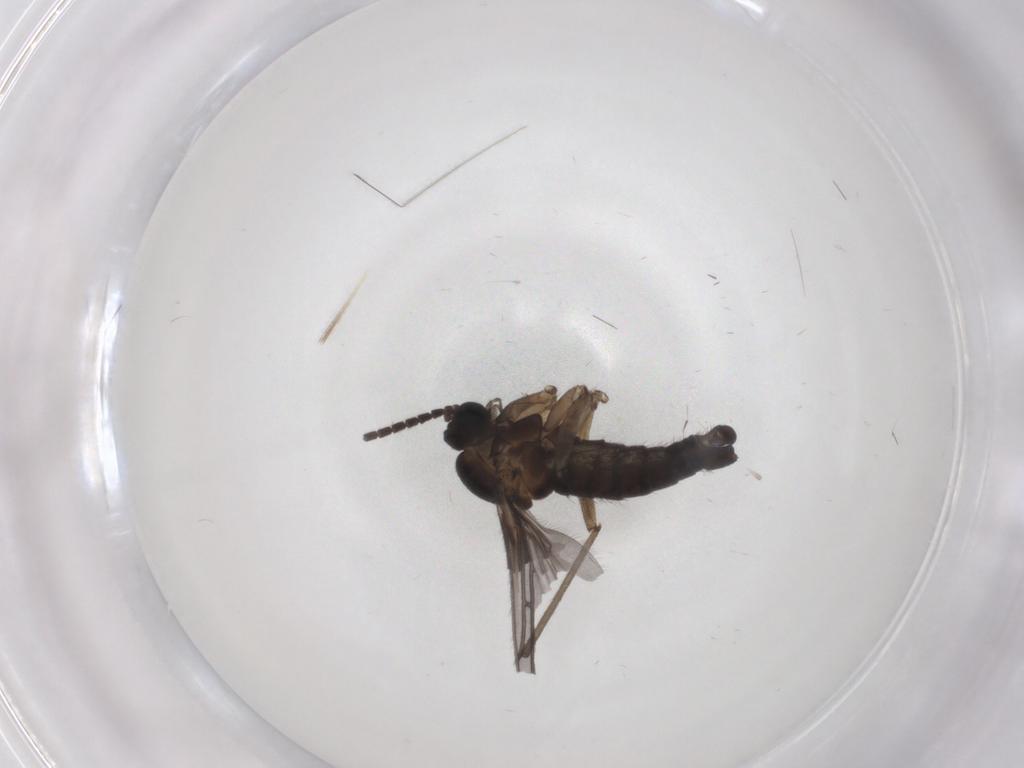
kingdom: Animalia
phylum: Arthropoda
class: Insecta
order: Diptera
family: Sciaridae
